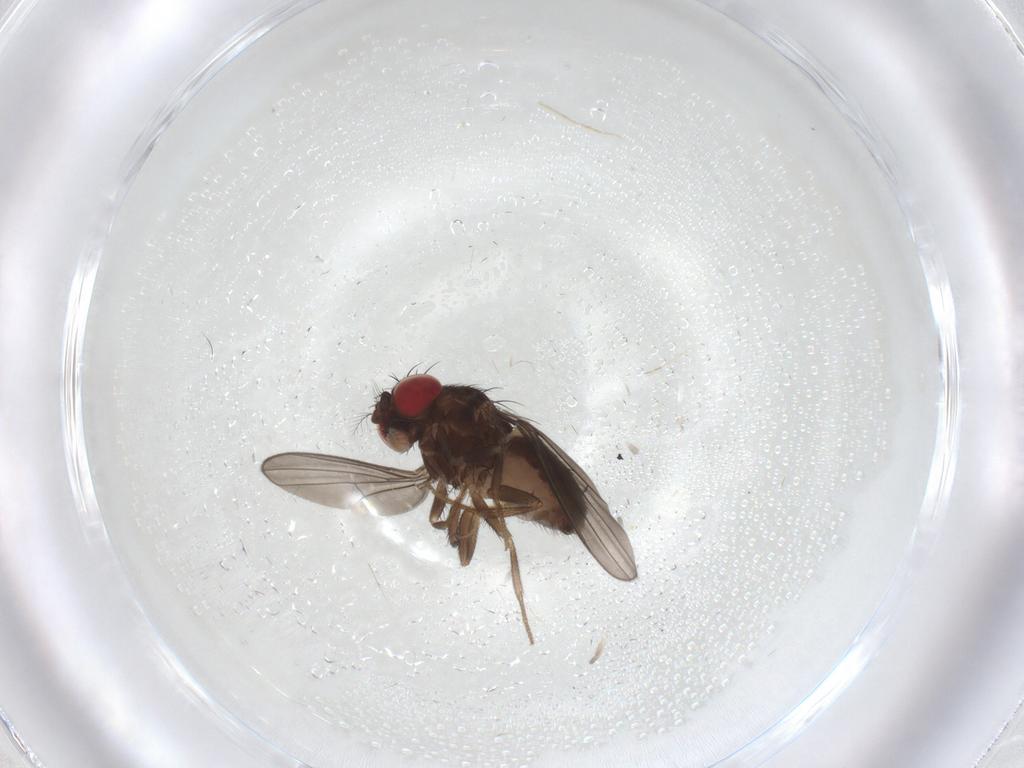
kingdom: Animalia
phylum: Arthropoda
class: Insecta
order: Diptera
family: Drosophilidae
